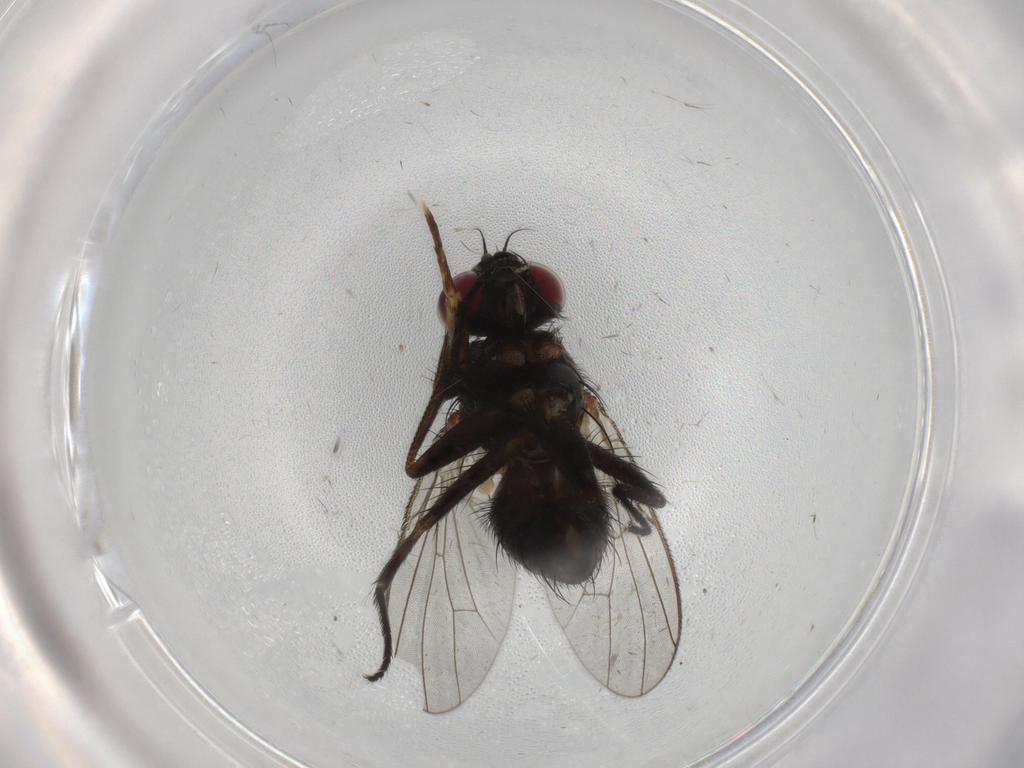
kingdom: Animalia
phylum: Arthropoda
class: Insecta
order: Diptera
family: Muscidae
